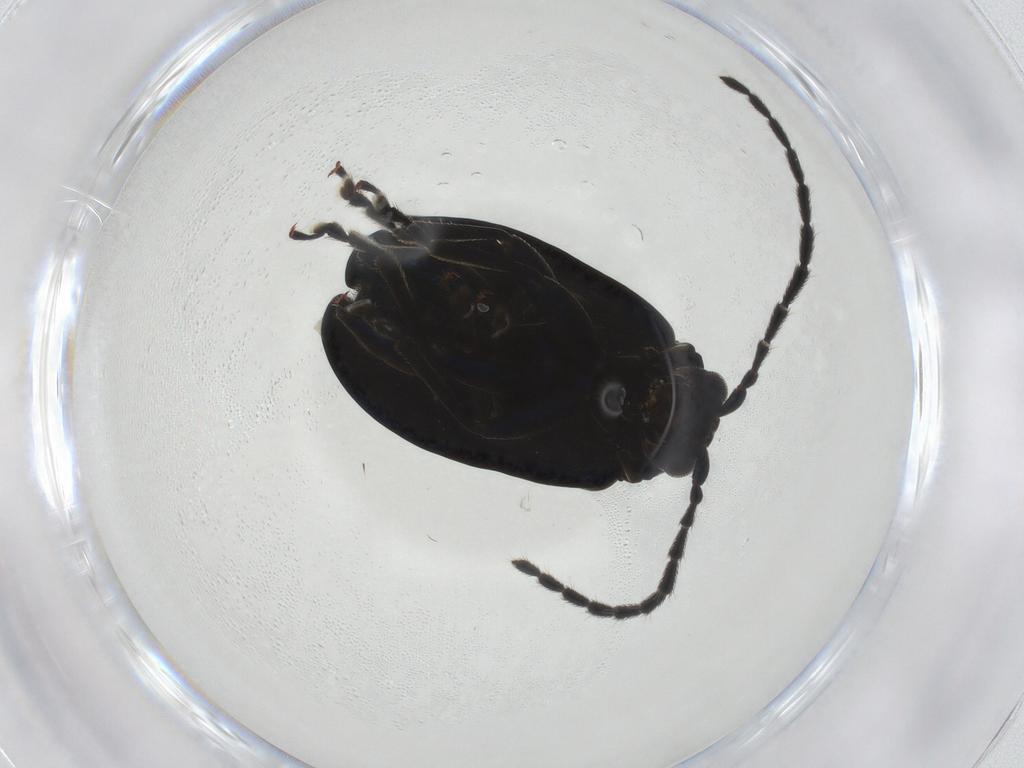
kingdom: Animalia
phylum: Arthropoda
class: Insecta
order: Coleoptera
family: Chrysomelidae
